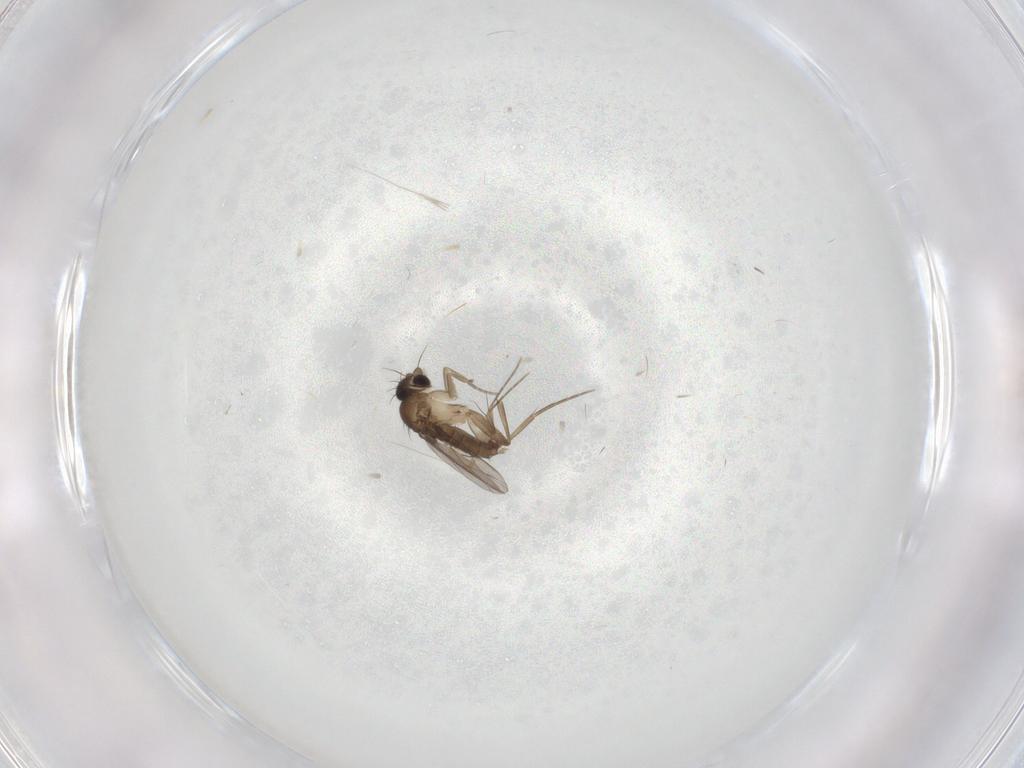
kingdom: Animalia
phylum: Arthropoda
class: Insecta
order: Diptera
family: Phoridae
